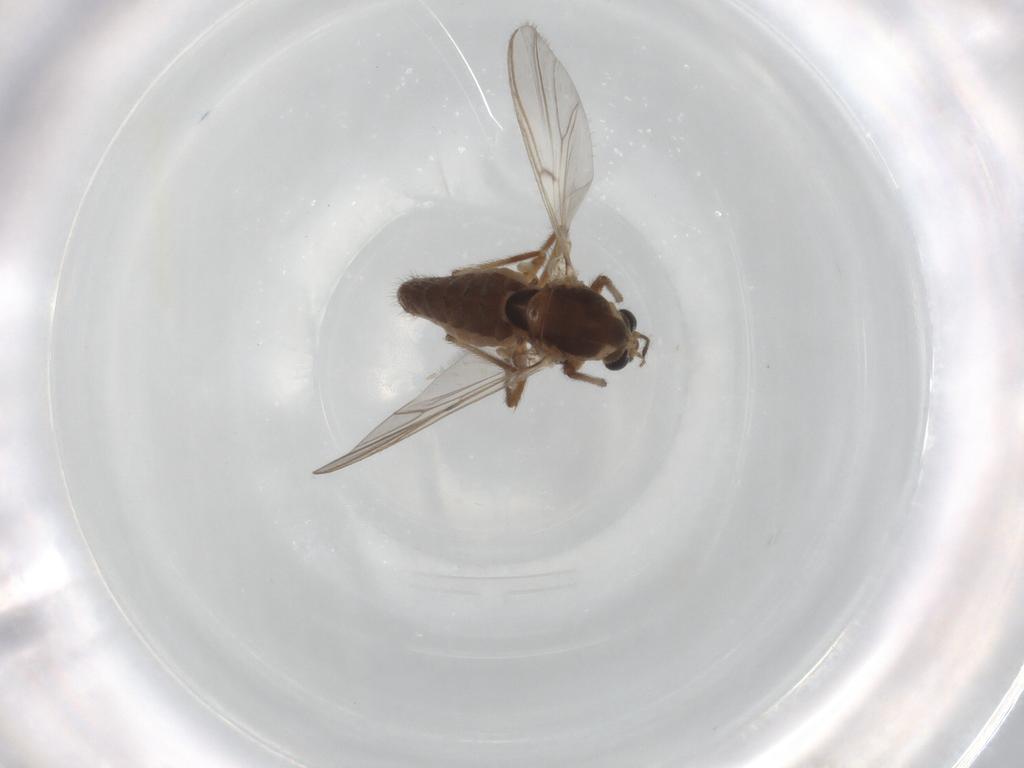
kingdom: Animalia
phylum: Arthropoda
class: Insecta
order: Diptera
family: Chironomidae
